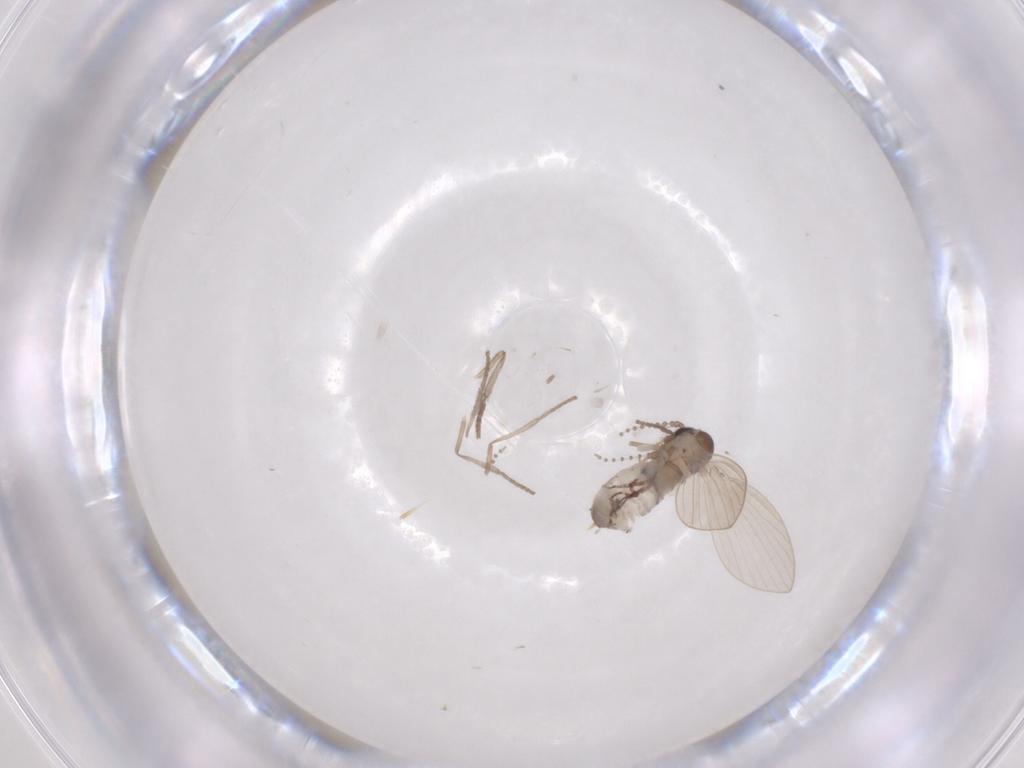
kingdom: Animalia
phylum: Arthropoda
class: Insecta
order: Diptera
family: Psychodidae
